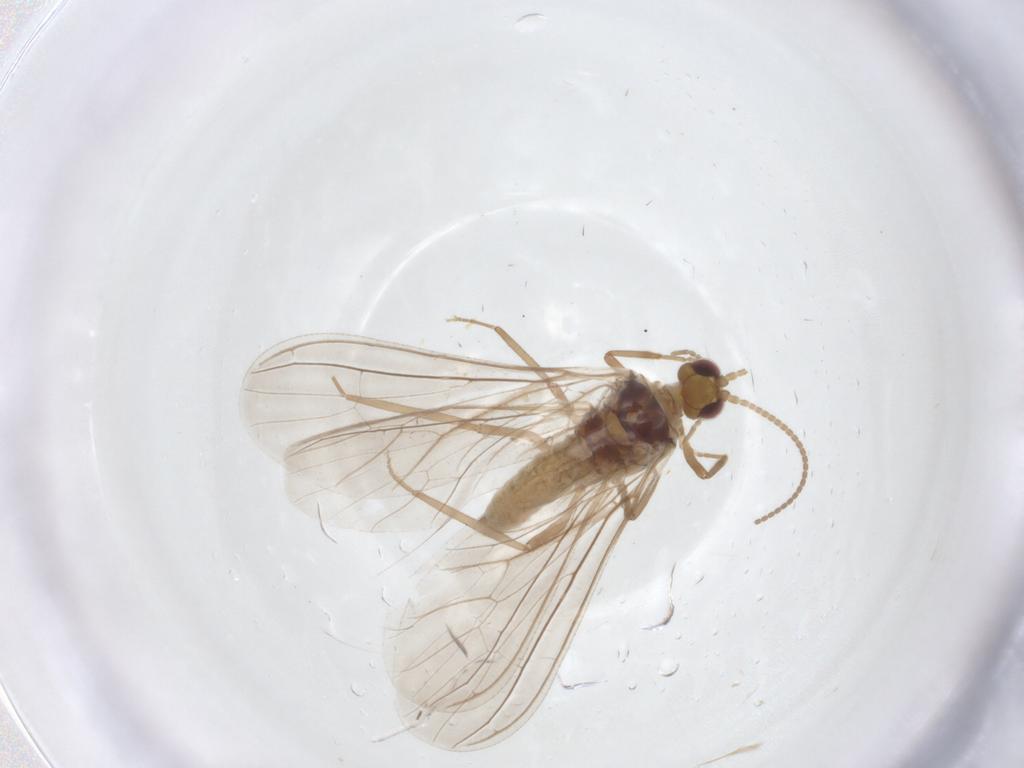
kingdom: Animalia
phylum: Arthropoda
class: Insecta
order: Neuroptera
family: Coniopterygidae
